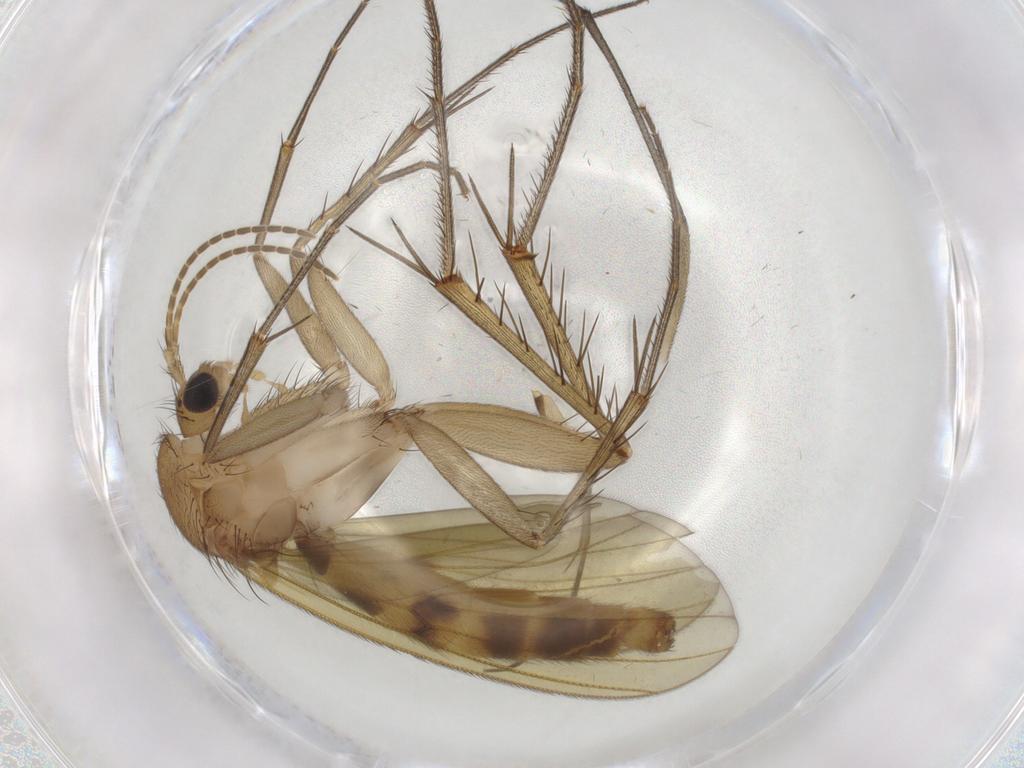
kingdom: Animalia
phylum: Arthropoda
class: Insecta
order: Diptera
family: Mycetophilidae
